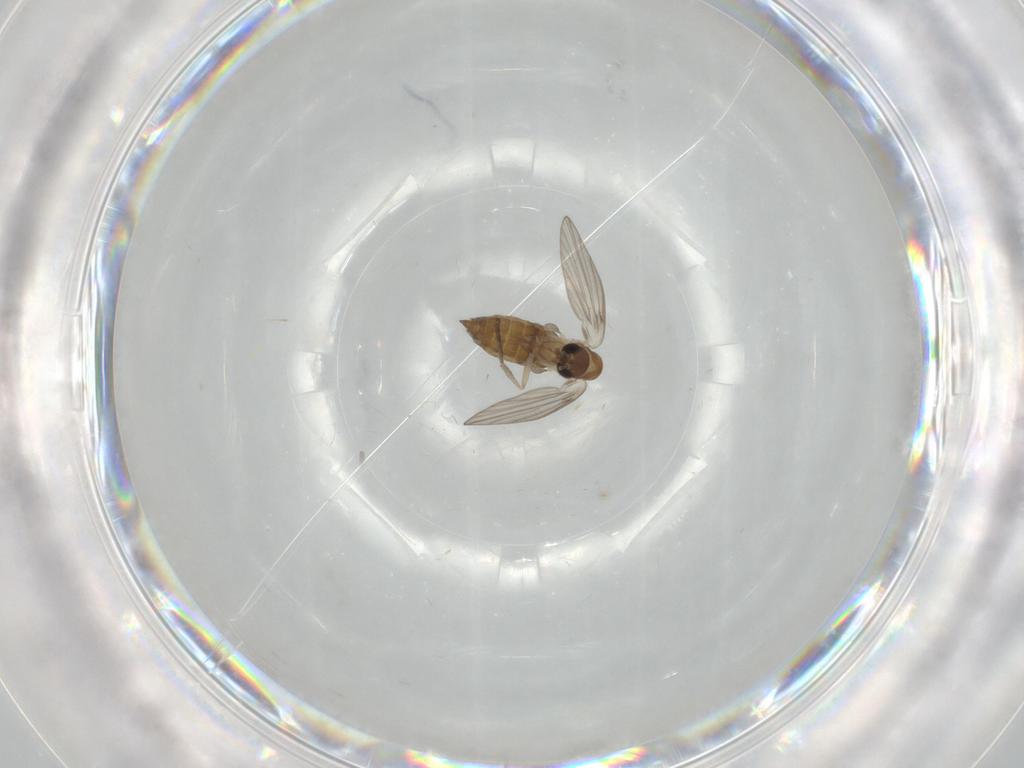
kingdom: Animalia
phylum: Arthropoda
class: Insecta
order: Diptera
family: Psychodidae
